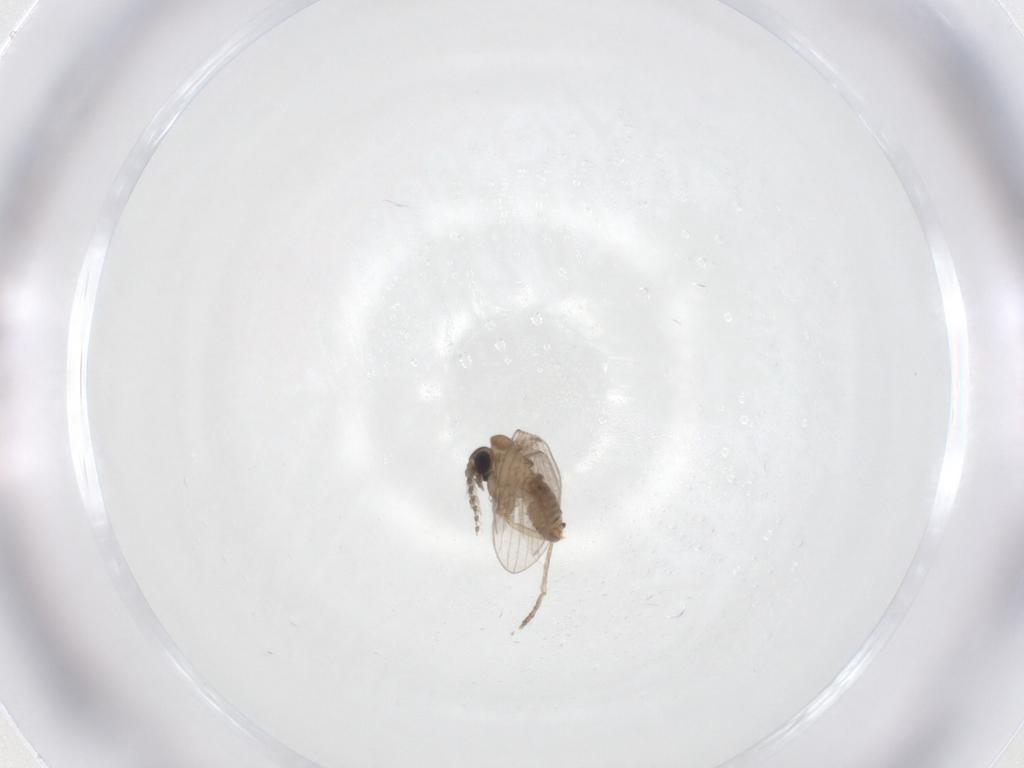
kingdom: Animalia
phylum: Arthropoda
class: Insecta
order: Diptera
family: Psychodidae
